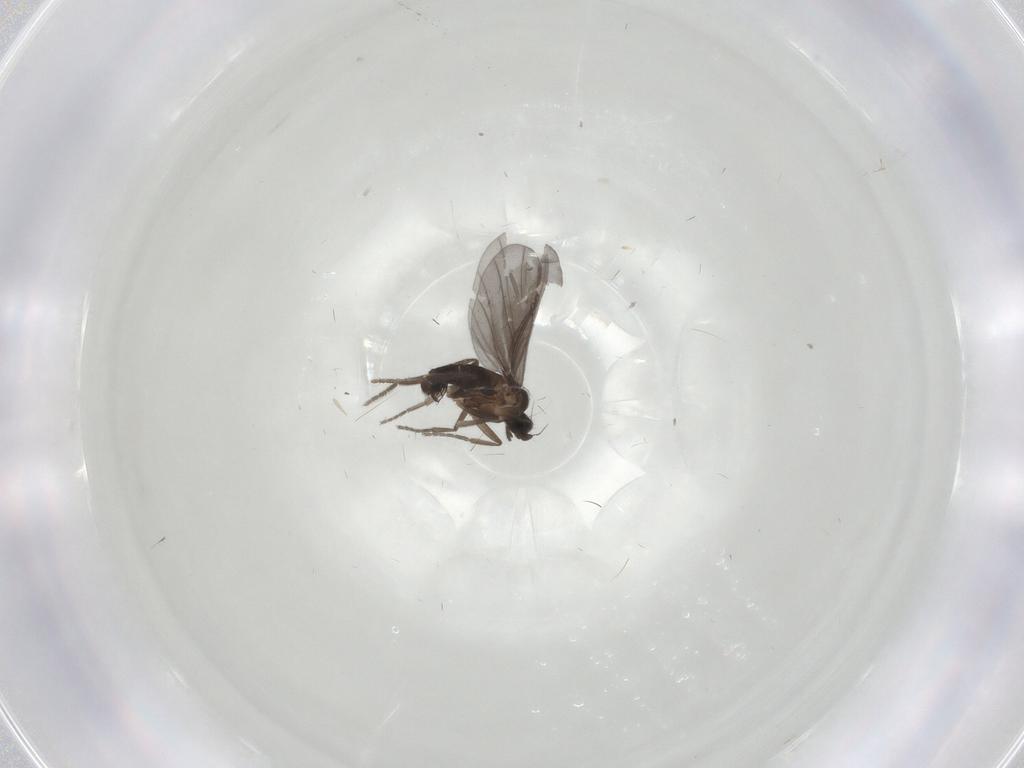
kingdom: Animalia
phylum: Arthropoda
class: Insecta
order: Diptera
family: Phoridae
